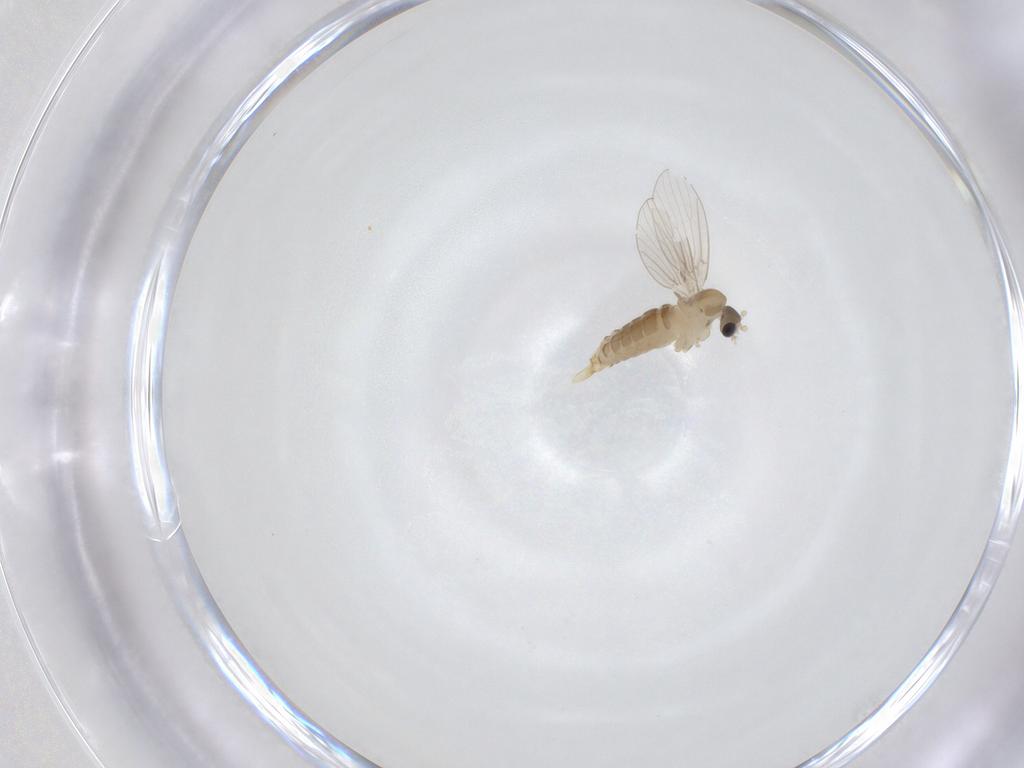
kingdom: Animalia
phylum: Arthropoda
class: Insecta
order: Diptera
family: Psychodidae
